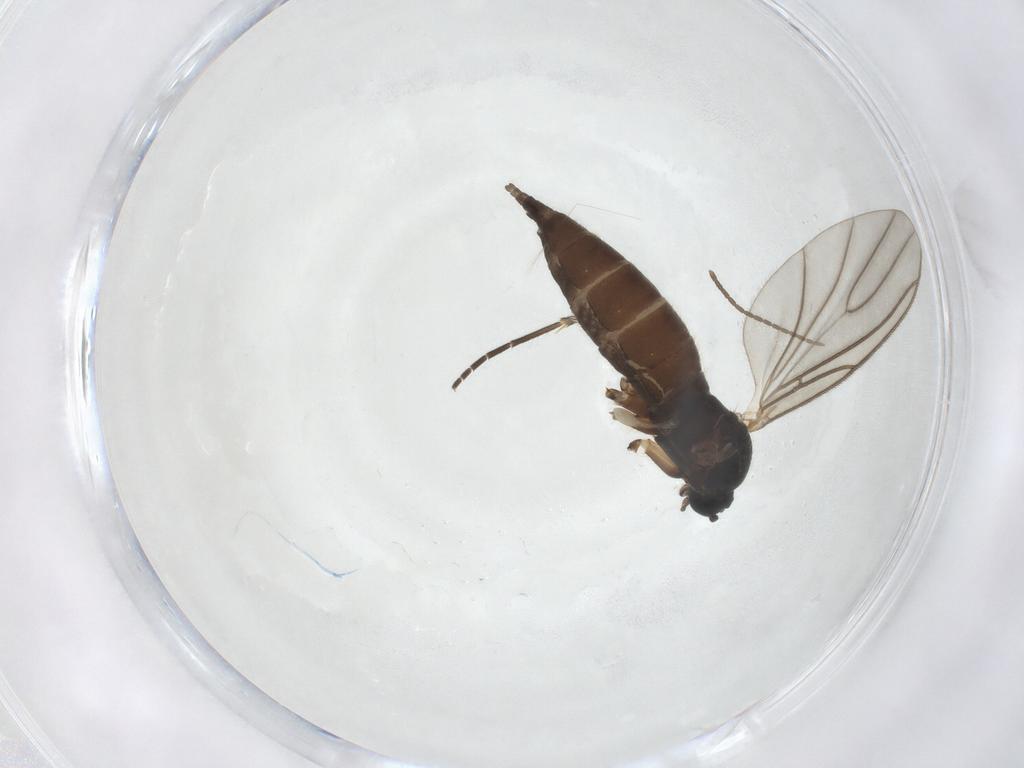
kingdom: Animalia
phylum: Arthropoda
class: Insecta
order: Diptera
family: Sciaridae
